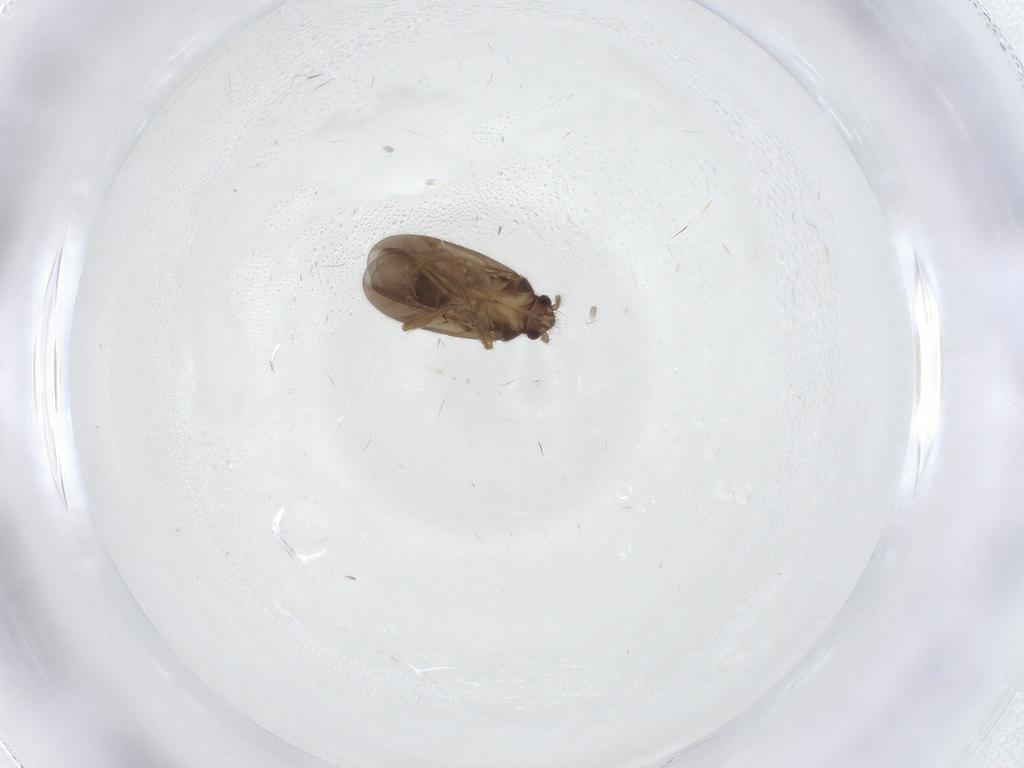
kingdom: Animalia
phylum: Arthropoda
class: Insecta
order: Hemiptera
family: Ceratocombidae
